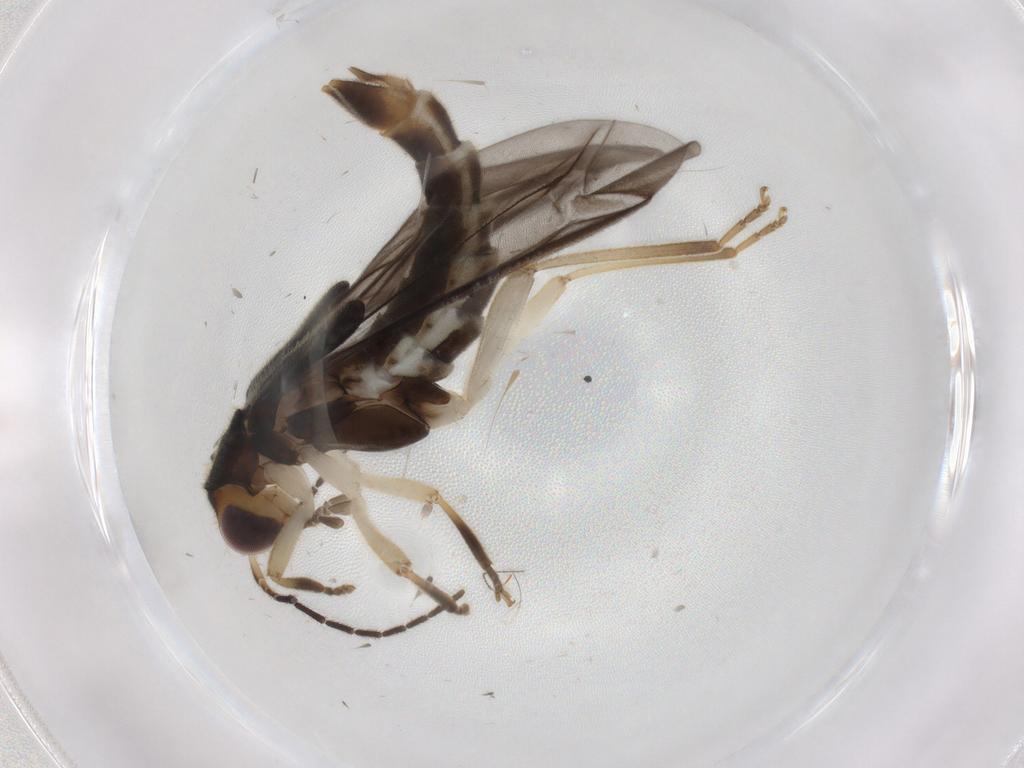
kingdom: Animalia
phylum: Arthropoda
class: Insecta
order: Coleoptera
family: Cantharidae
